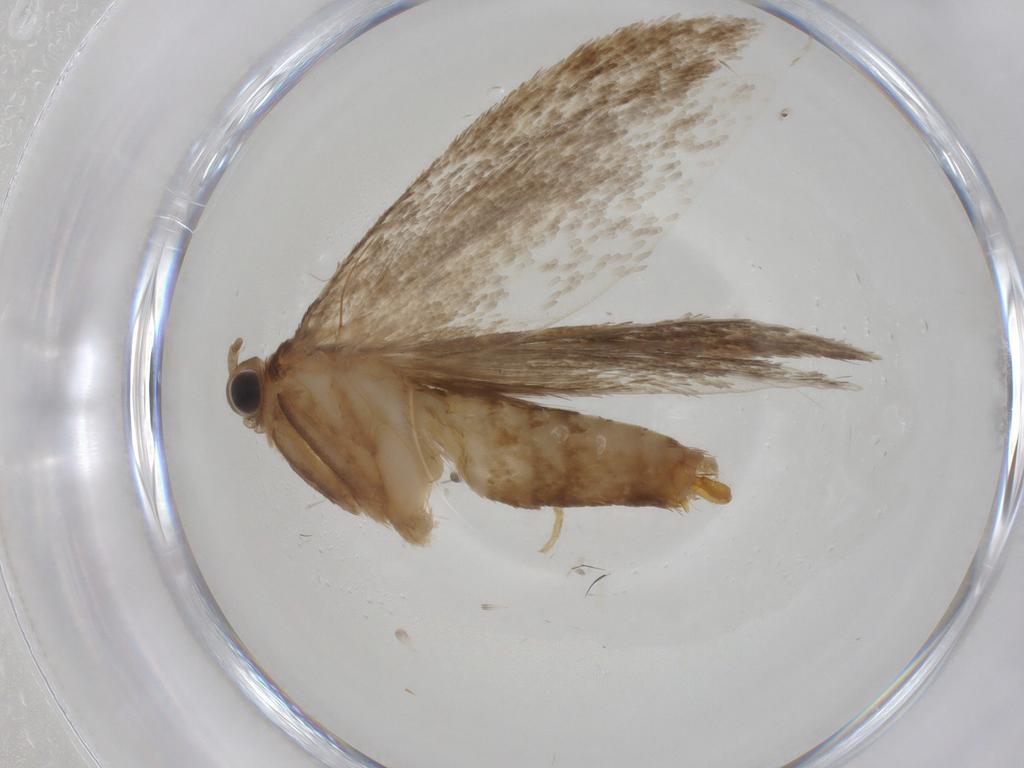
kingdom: Animalia
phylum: Arthropoda
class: Insecta
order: Lepidoptera
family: Tineidae
